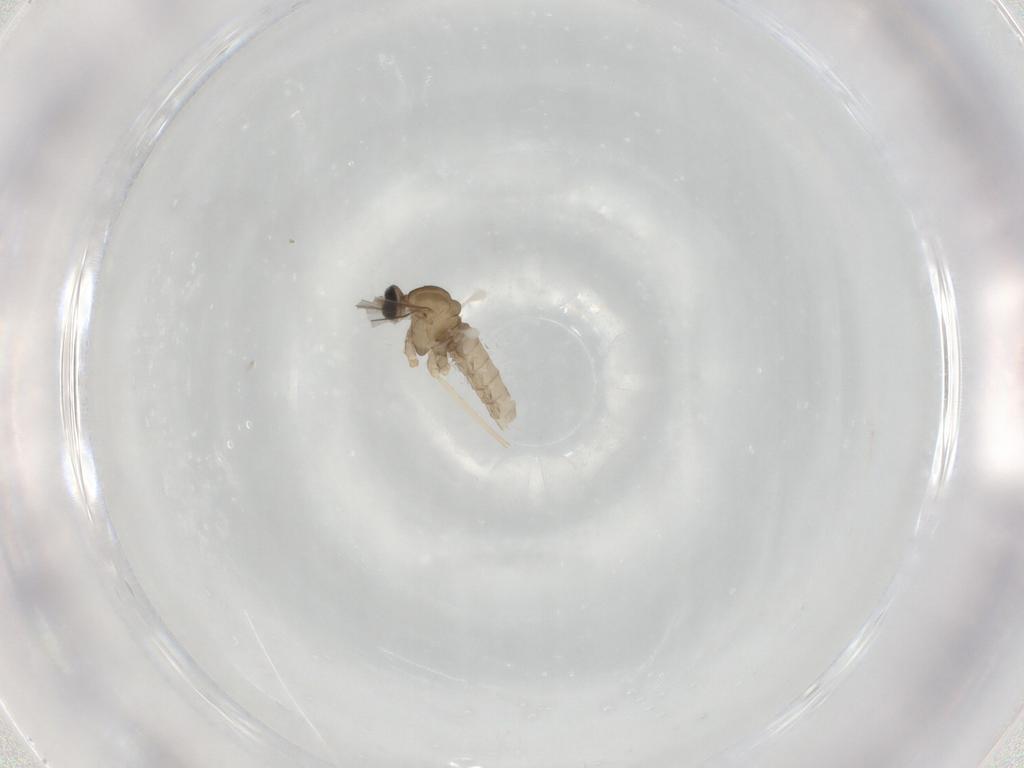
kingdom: Animalia
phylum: Arthropoda
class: Insecta
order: Diptera
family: Cecidomyiidae
